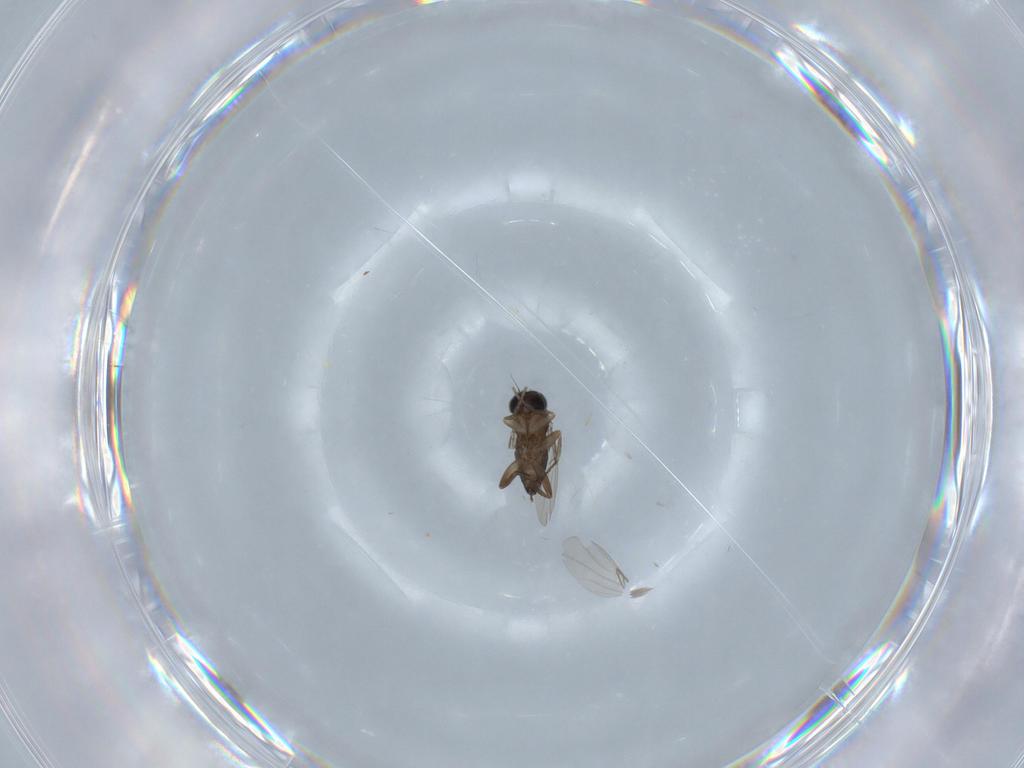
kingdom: Animalia
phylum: Arthropoda
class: Insecta
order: Diptera
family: Phoridae
